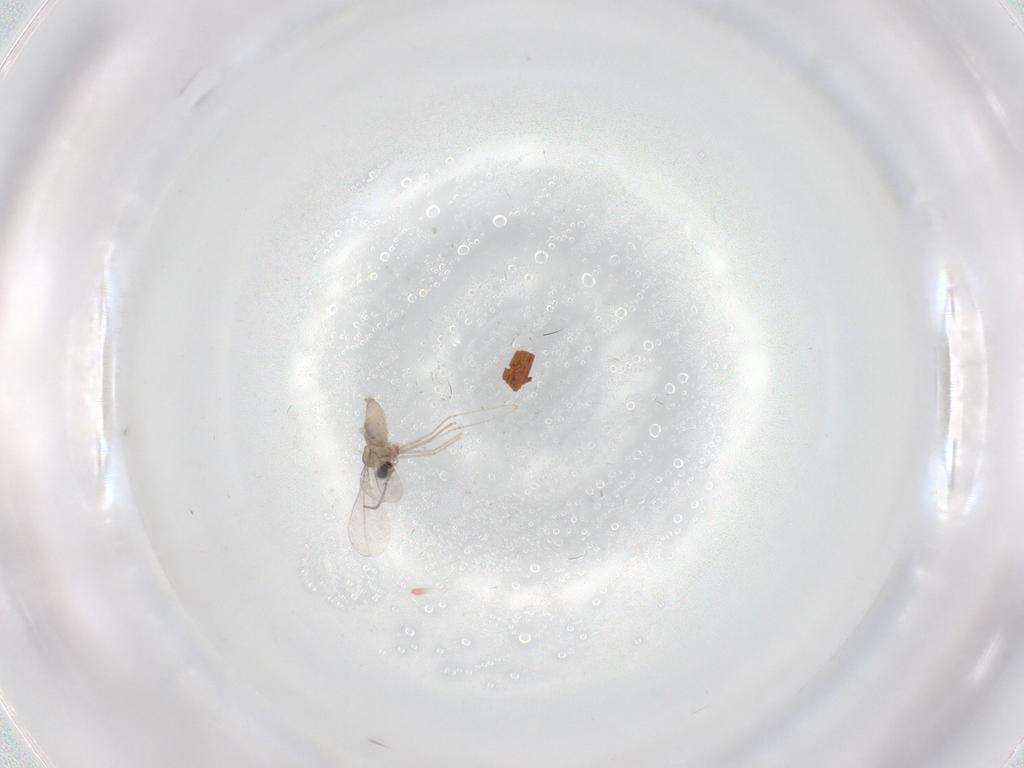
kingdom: Animalia
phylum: Arthropoda
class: Insecta
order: Diptera
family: Cecidomyiidae
